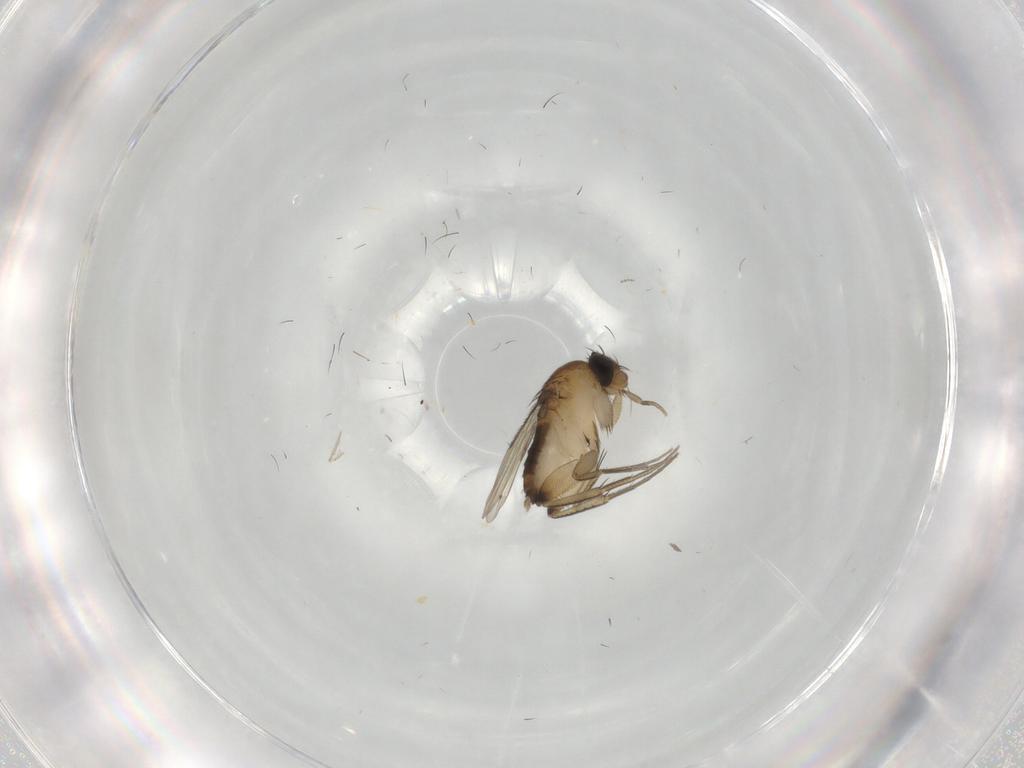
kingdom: Animalia
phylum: Arthropoda
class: Insecta
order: Diptera
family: Phoridae
